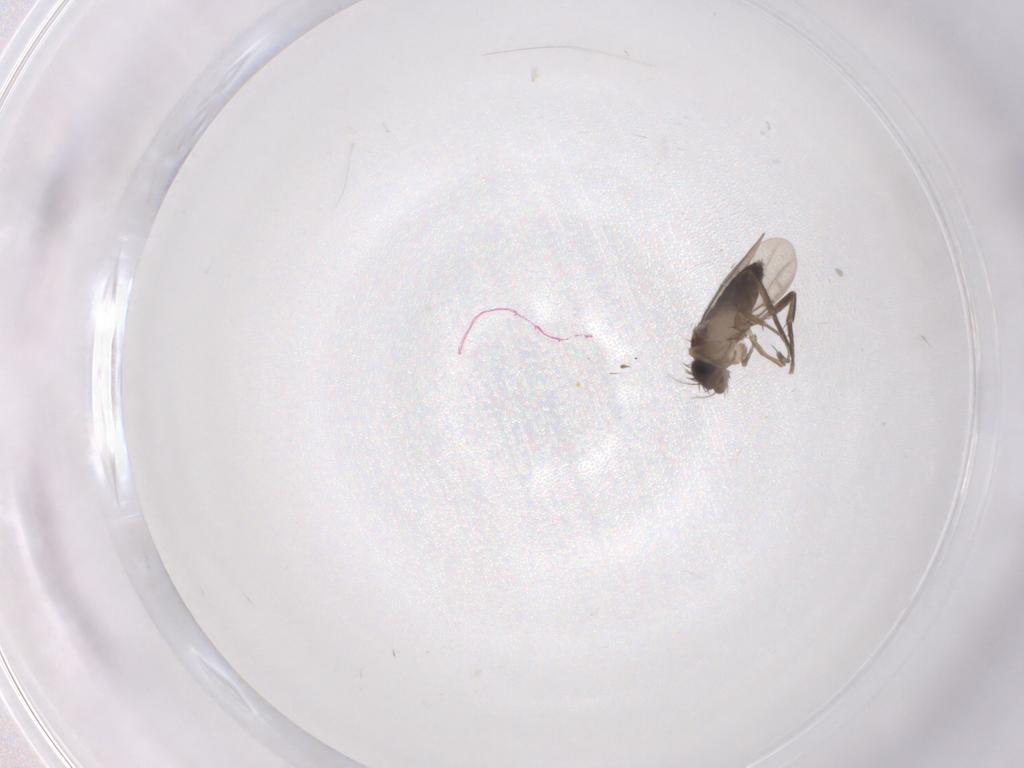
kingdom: Animalia
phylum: Arthropoda
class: Insecta
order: Diptera
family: Phoridae
